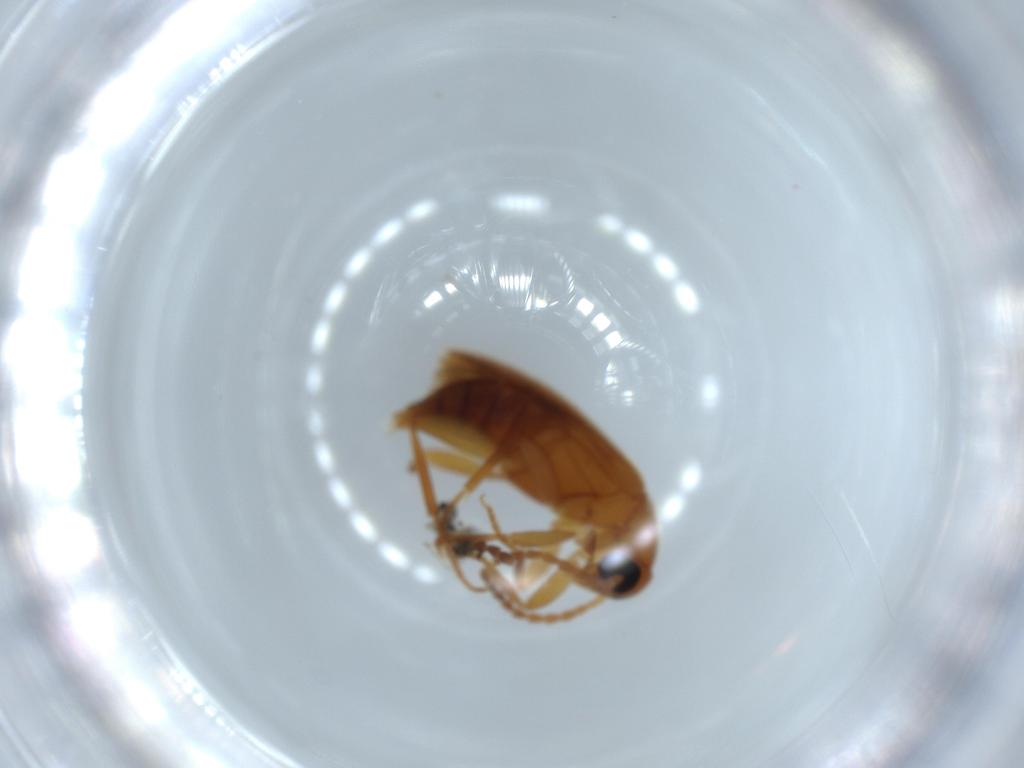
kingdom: Animalia
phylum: Arthropoda
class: Insecta
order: Coleoptera
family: Scraptiidae
